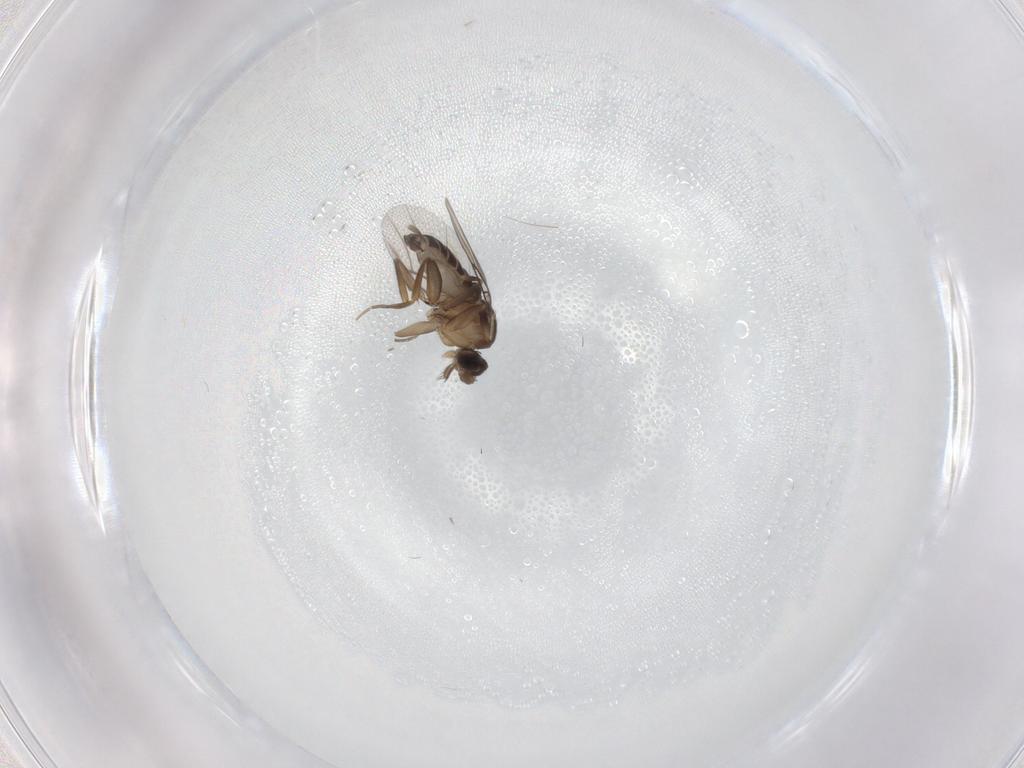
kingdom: Animalia
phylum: Arthropoda
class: Insecta
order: Diptera
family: Phoridae
